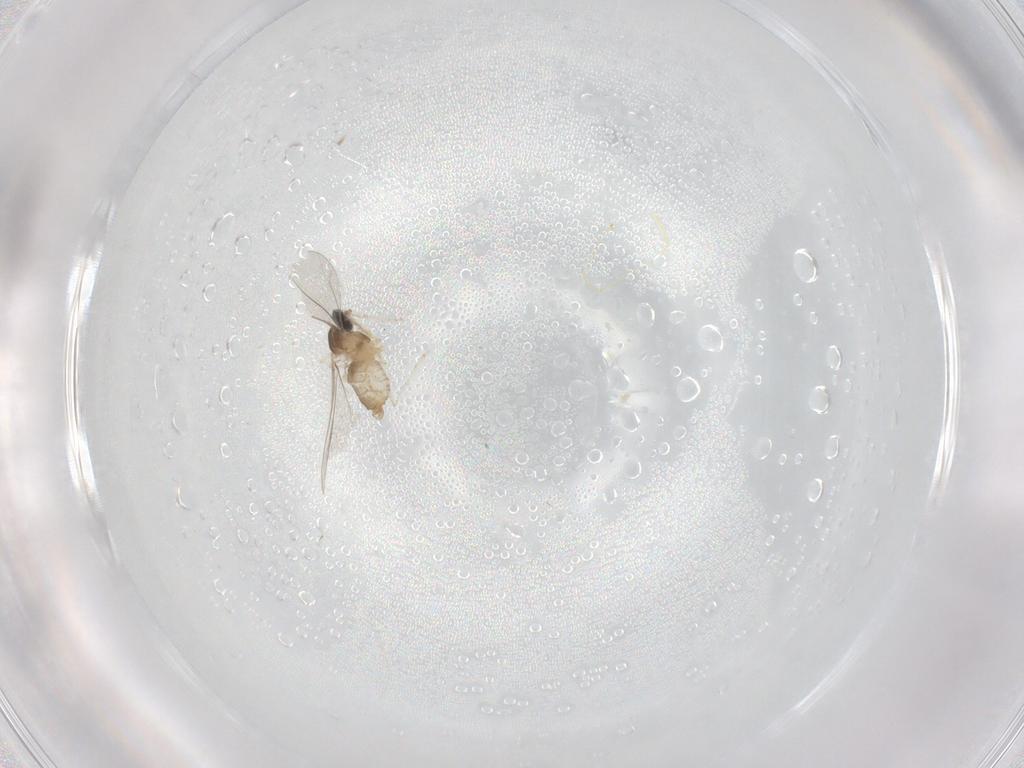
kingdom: Animalia
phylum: Arthropoda
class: Insecta
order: Diptera
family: Cecidomyiidae
